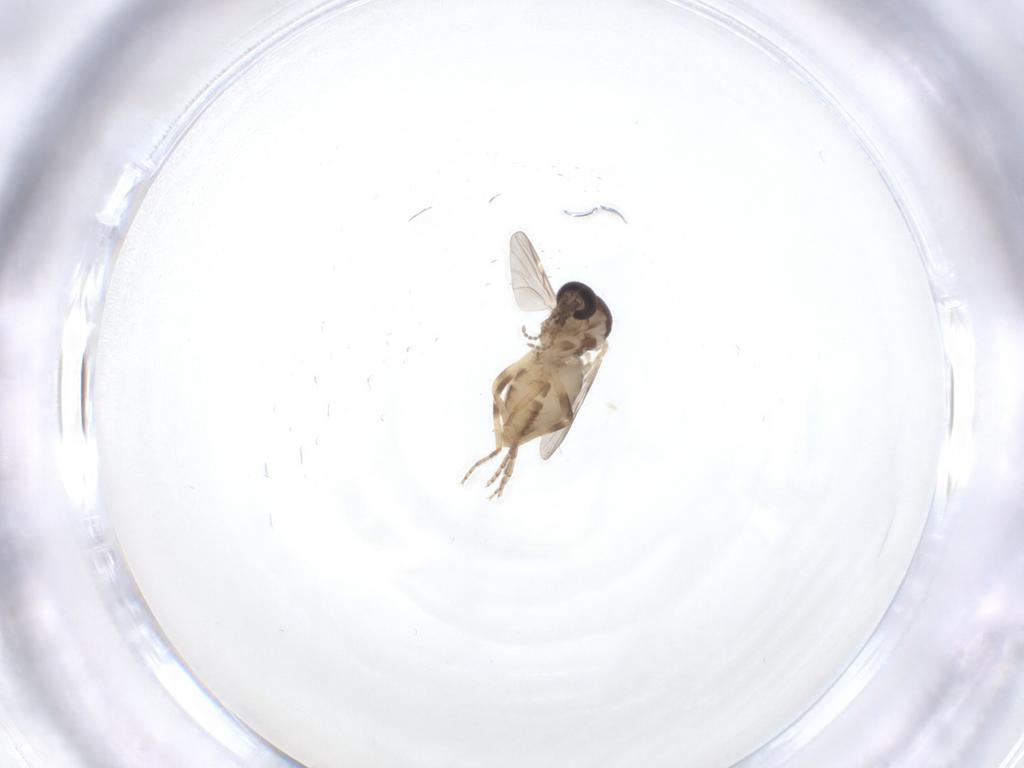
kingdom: Animalia
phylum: Arthropoda
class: Insecta
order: Diptera
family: Ceratopogonidae
